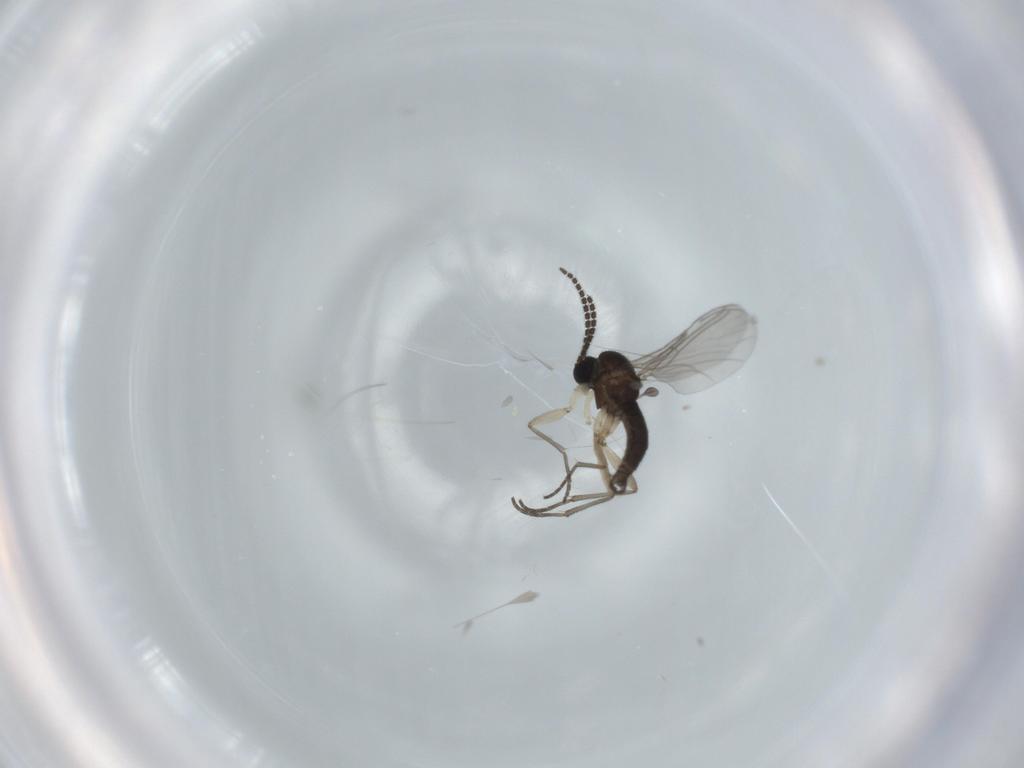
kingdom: Animalia
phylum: Arthropoda
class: Insecta
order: Diptera
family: Sciaridae
